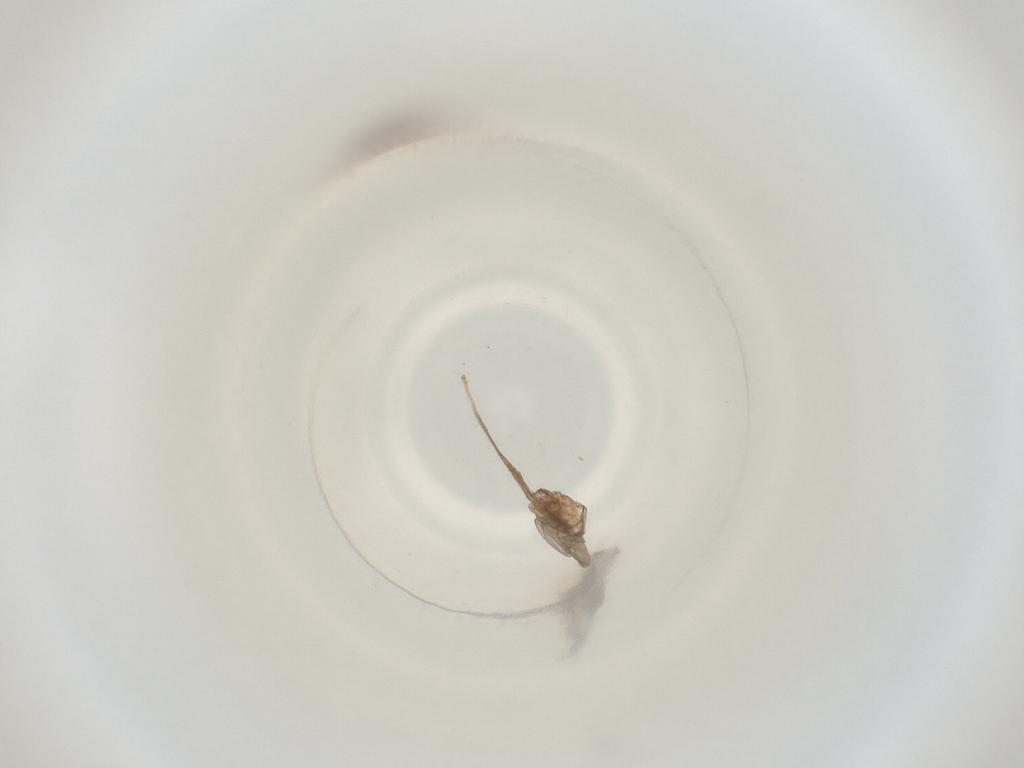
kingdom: Animalia
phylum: Arthropoda
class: Insecta
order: Diptera
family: Cecidomyiidae
